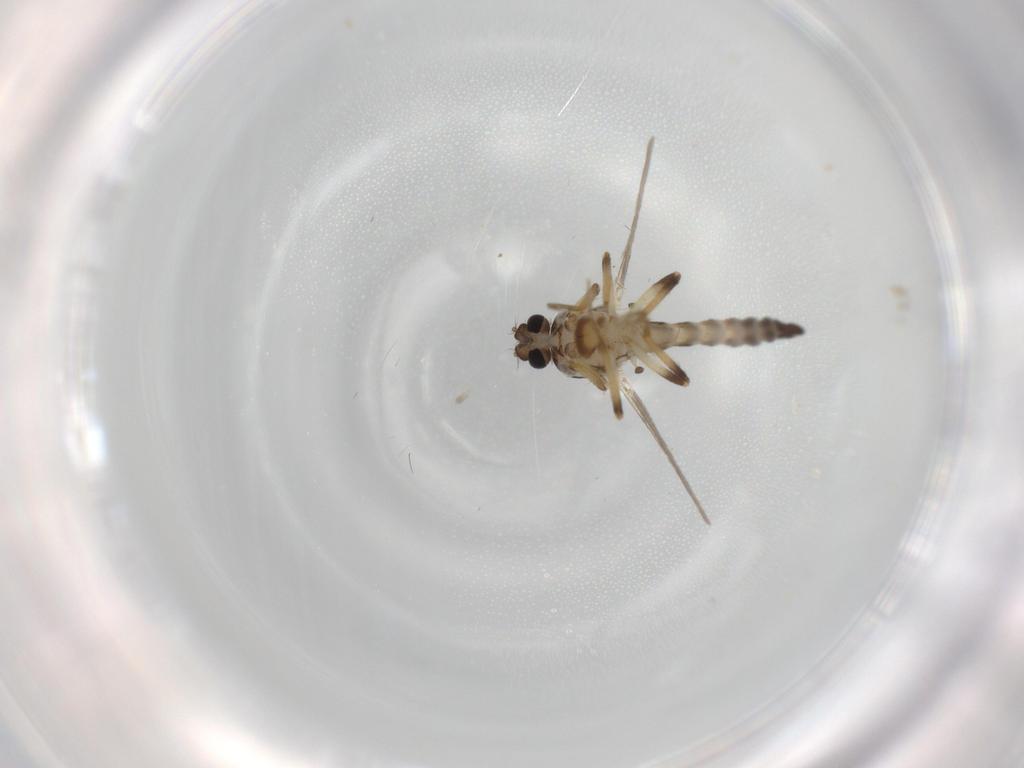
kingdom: Animalia
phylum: Arthropoda
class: Insecta
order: Diptera
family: Ceratopogonidae
